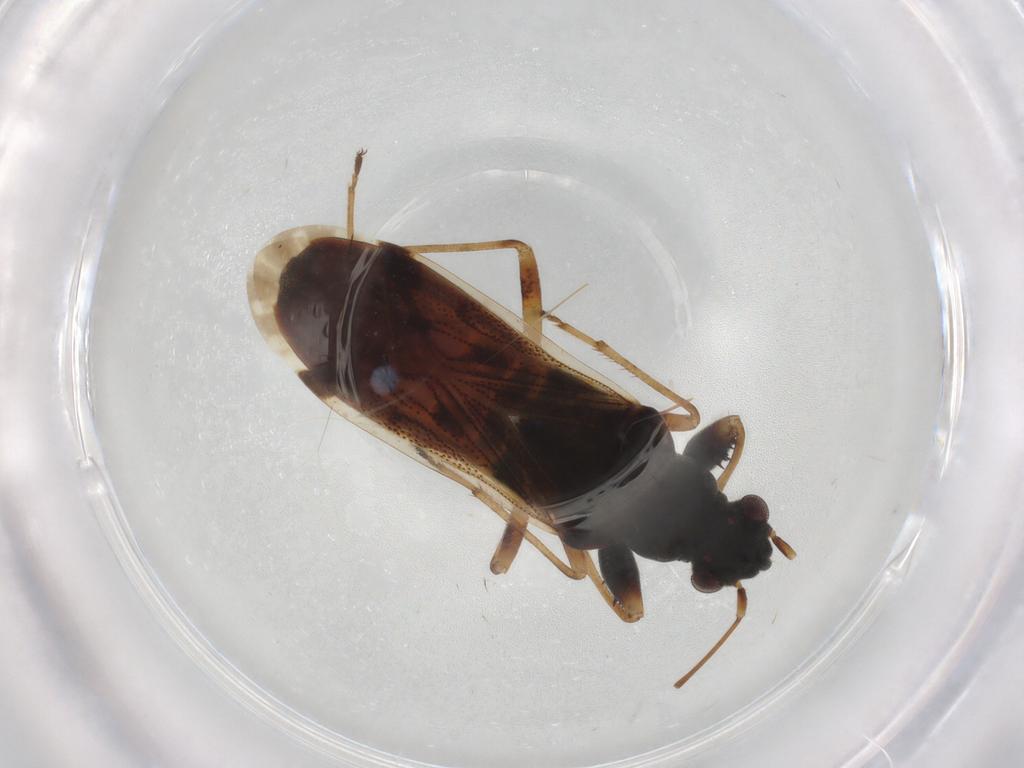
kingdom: Animalia
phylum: Arthropoda
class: Insecta
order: Hemiptera
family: Rhyparochromidae
